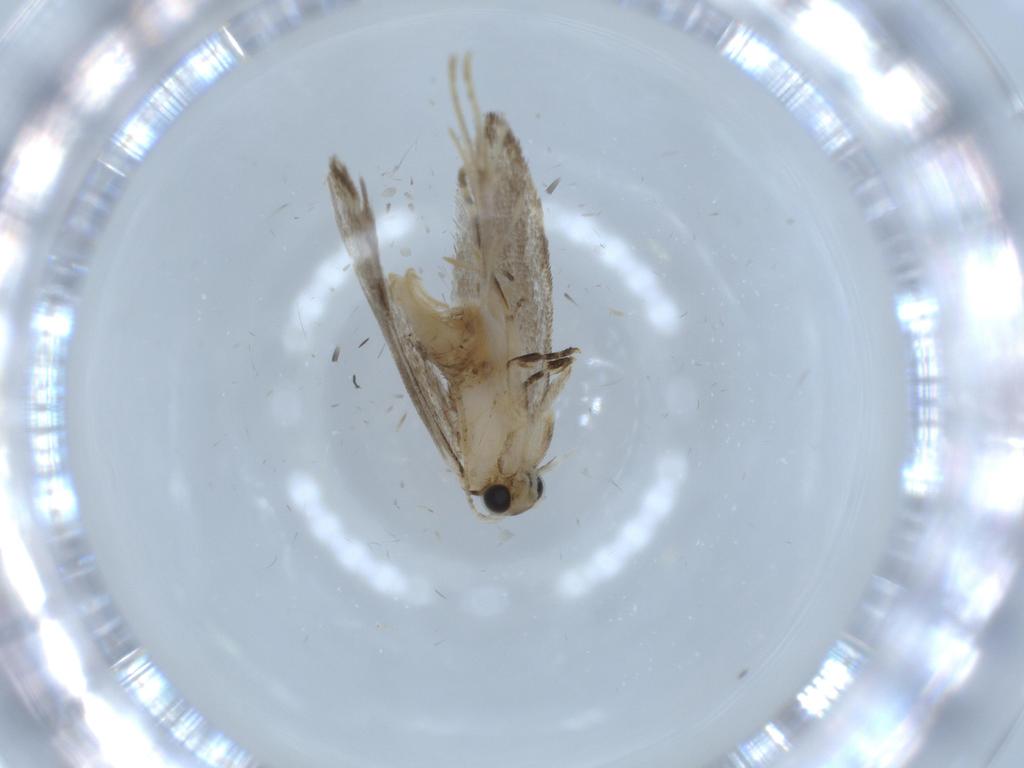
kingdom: Animalia
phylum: Arthropoda
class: Insecta
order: Lepidoptera
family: Tineidae
